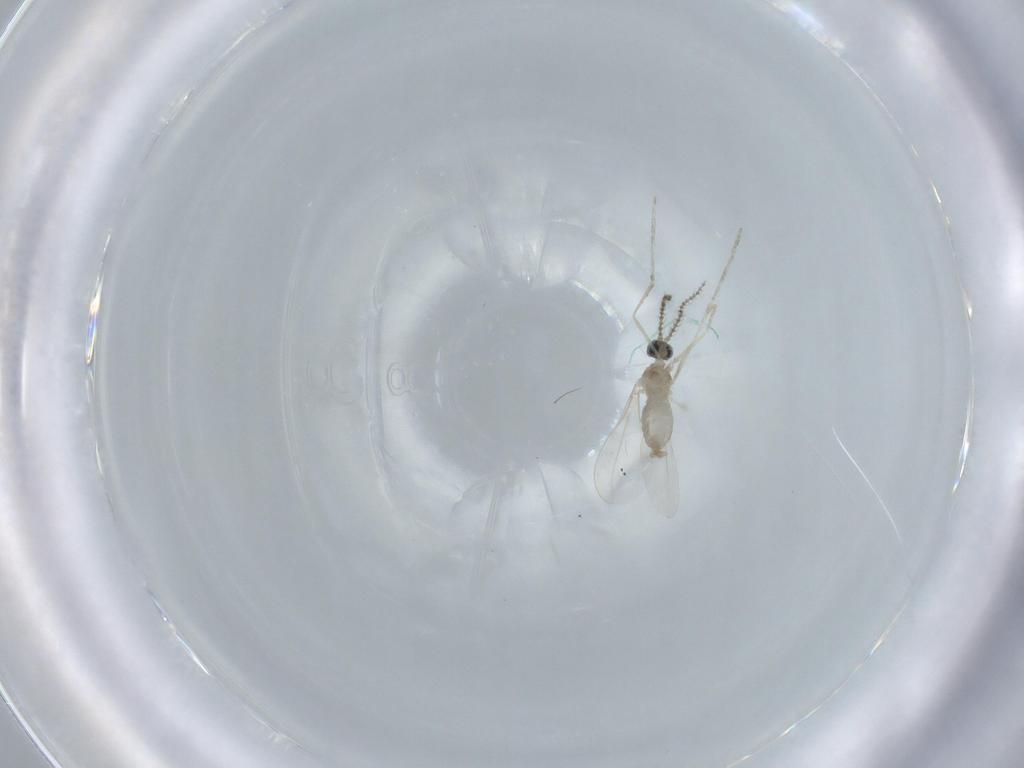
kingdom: Animalia
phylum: Arthropoda
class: Insecta
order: Diptera
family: Cecidomyiidae
